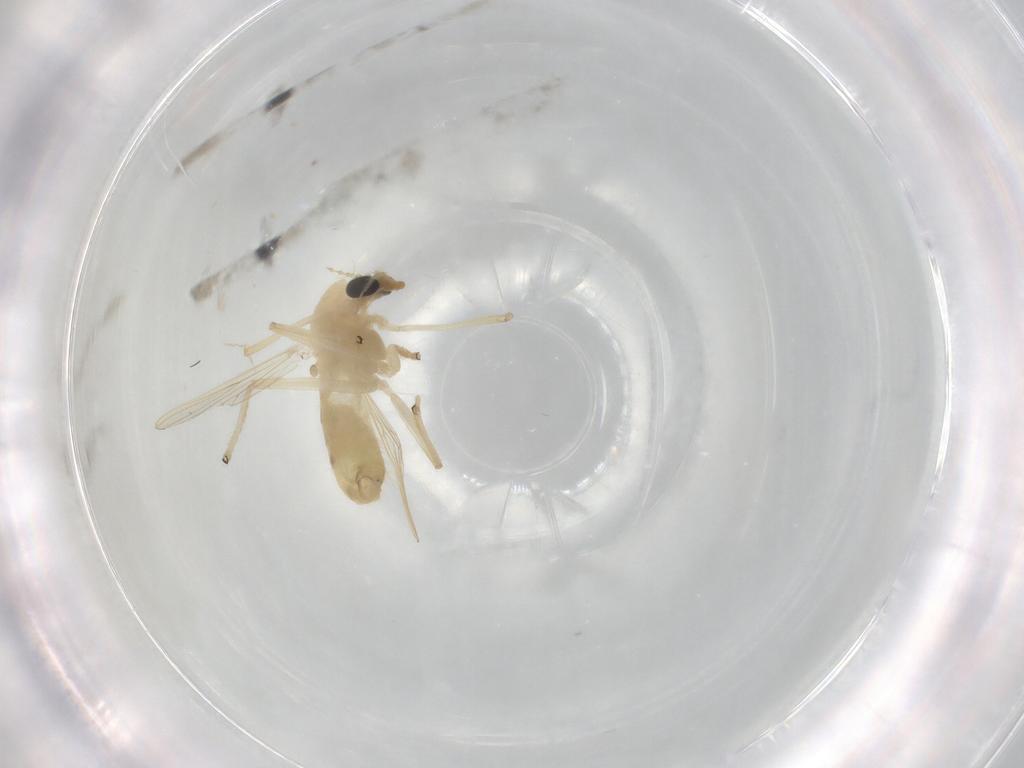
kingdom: Animalia
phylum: Arthropoda
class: Insecta
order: Diptera
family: Chironomidae
